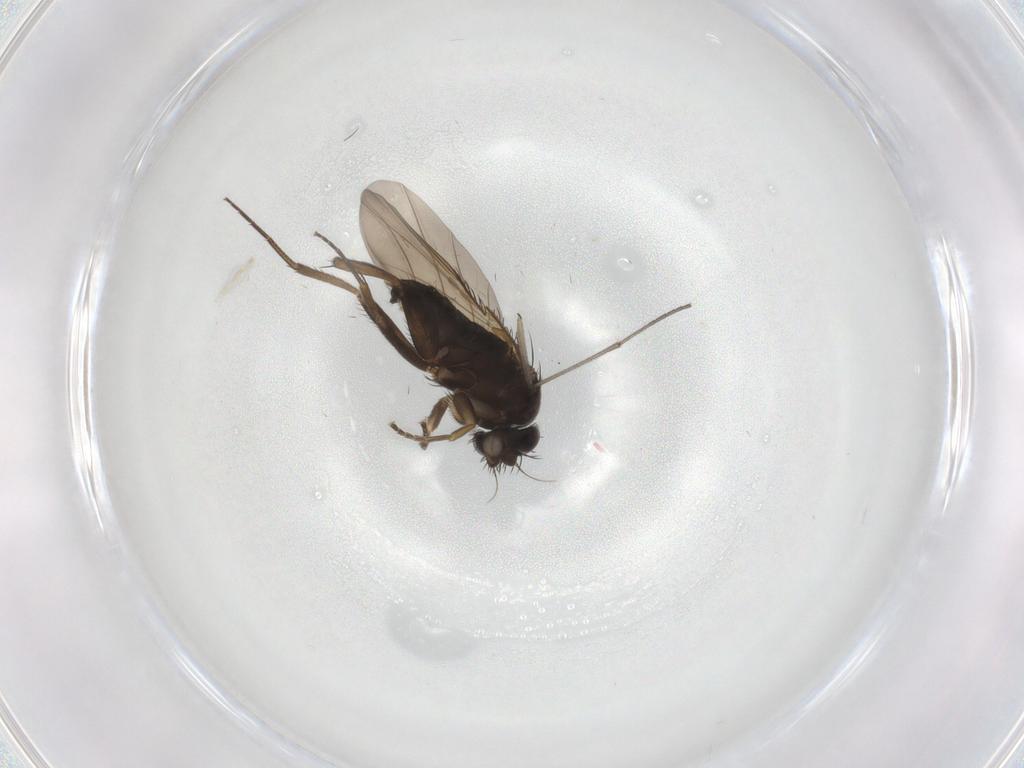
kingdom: Animalia
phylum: Arthropoda
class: Insecta
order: Diptera
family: Phoridae
